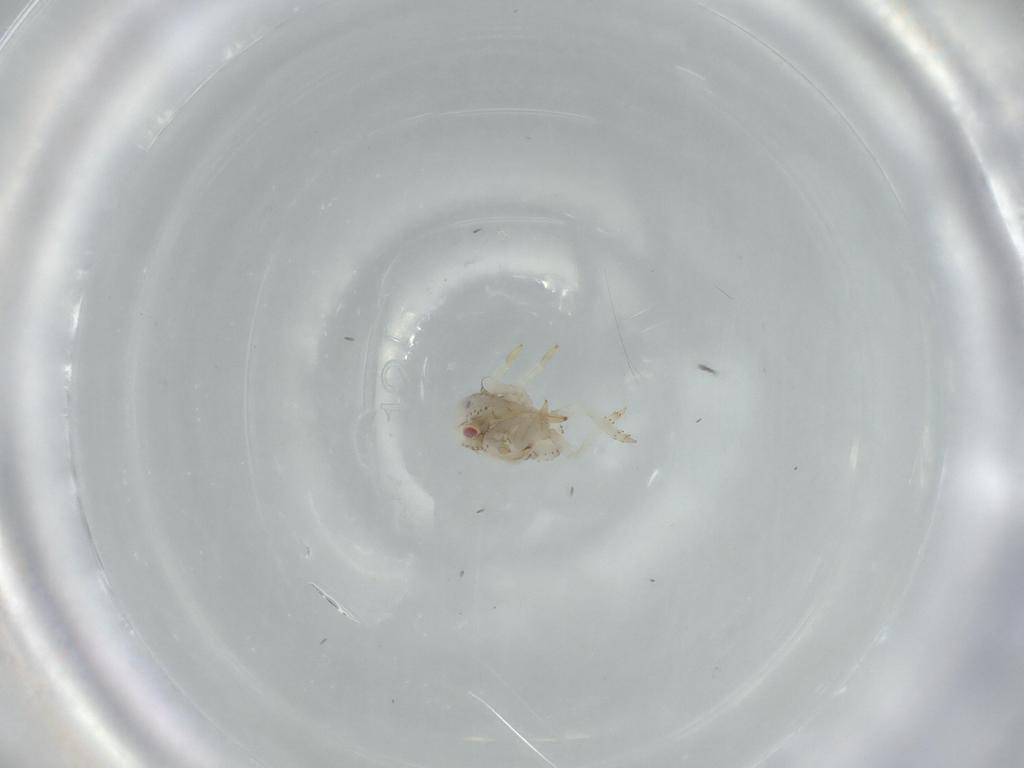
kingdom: Animalia
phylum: Arthropoda
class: Insecta
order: Hemiptera
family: Acanaloniidae
